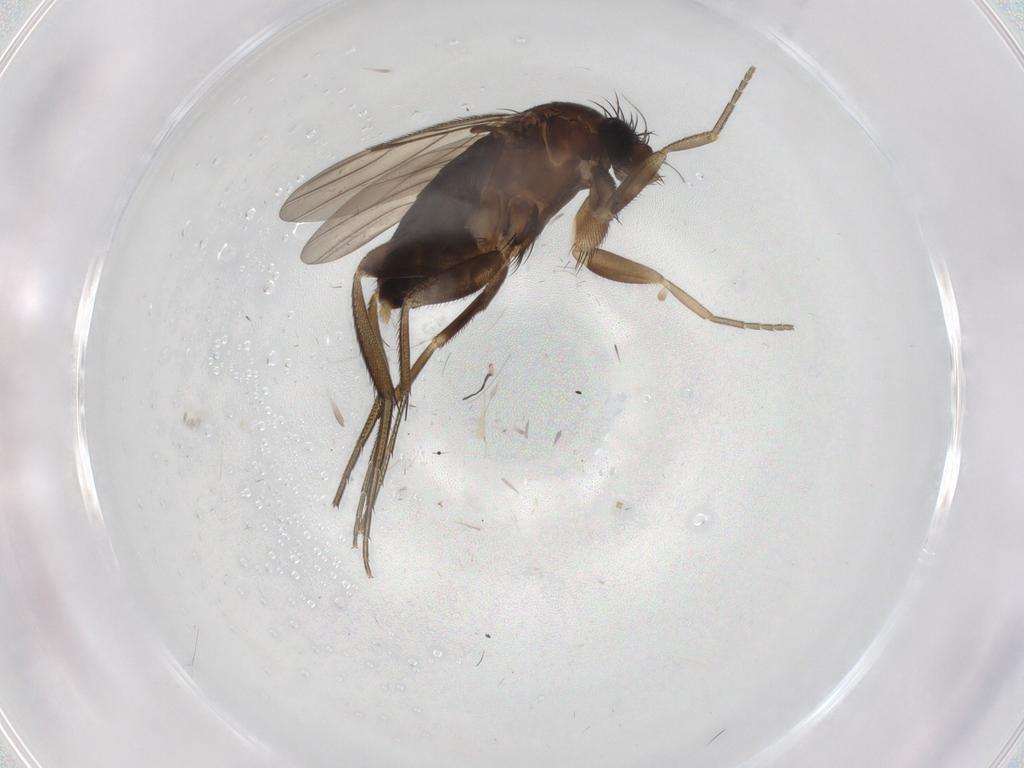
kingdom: Animalia
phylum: Arthropoda
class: Insecta
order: Diptera
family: Phoridae
